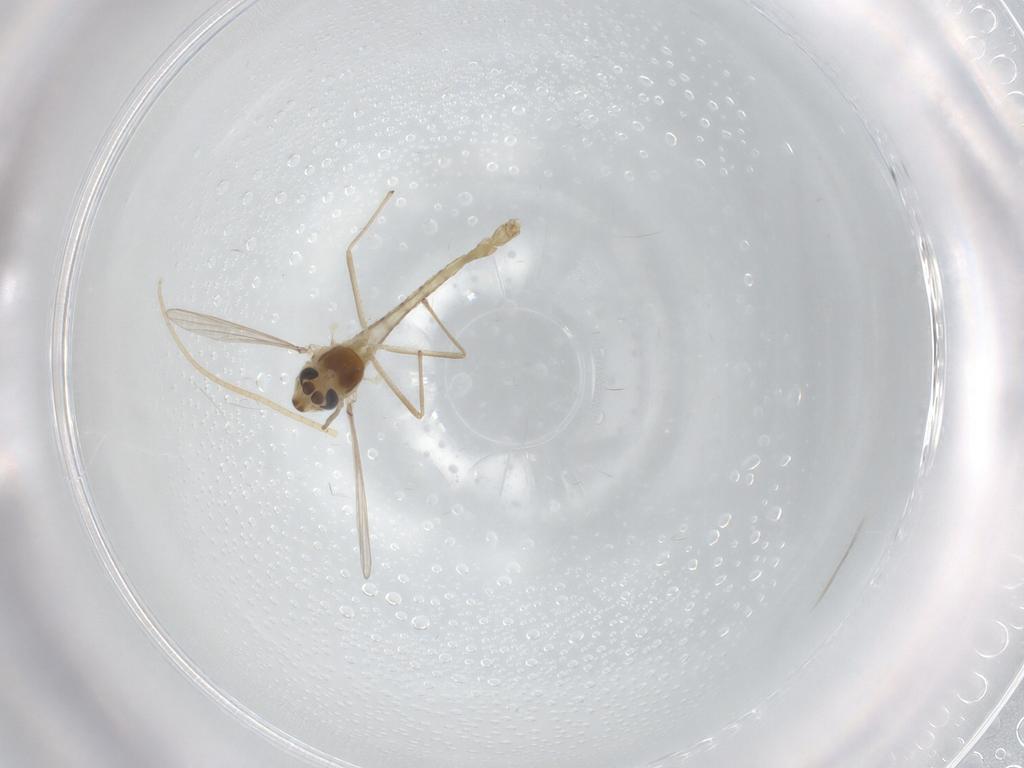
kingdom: Animalia
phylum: Arthropoda
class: Insecta
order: Diptera
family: Chironomidae
